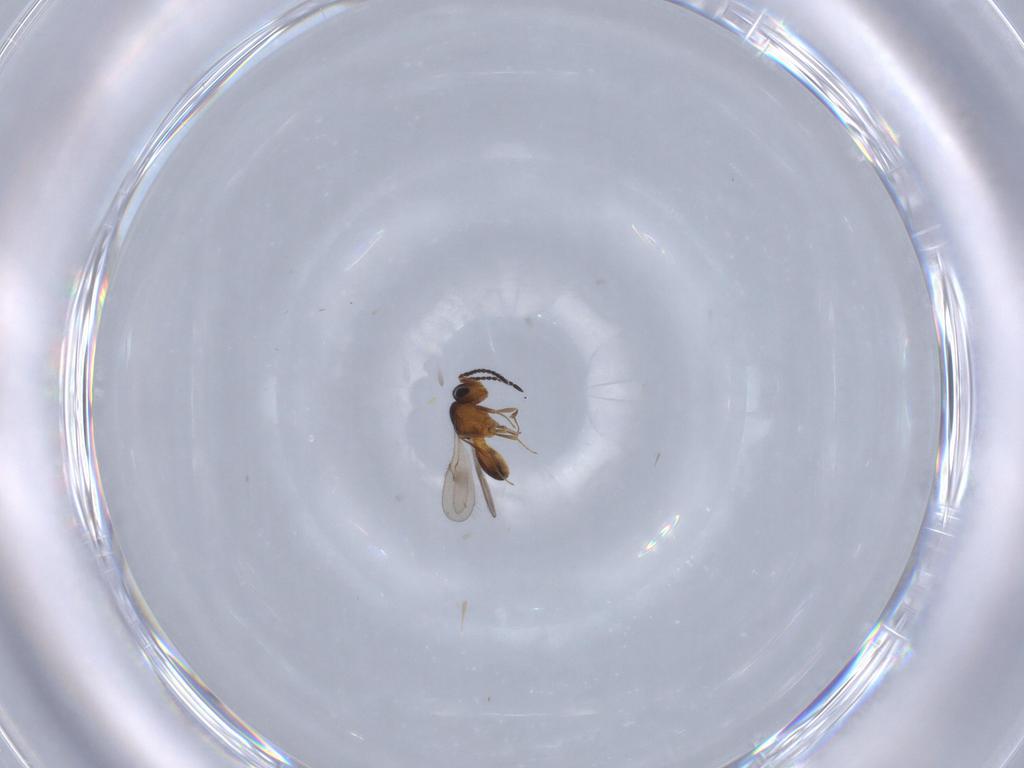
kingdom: Animalia
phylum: Arthropoda
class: Insecta
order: Hymenoptera
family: Scelionidae
